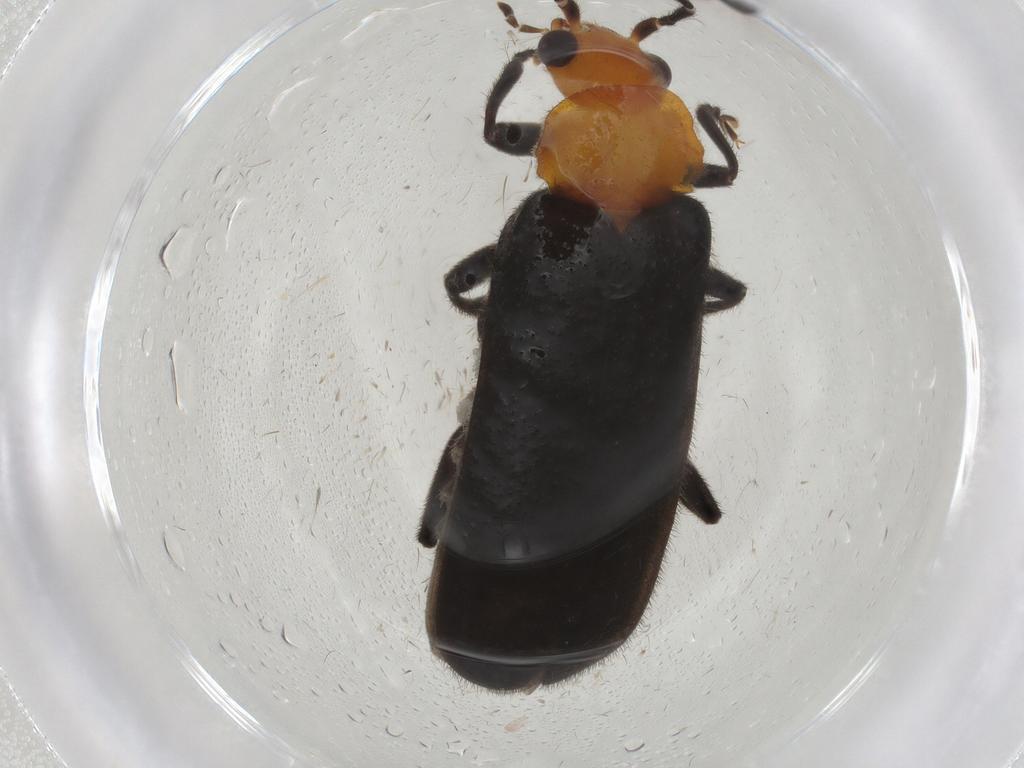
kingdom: Animalia
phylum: Arthropoda
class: Insecta
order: Coleoptera
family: Cantharidae
